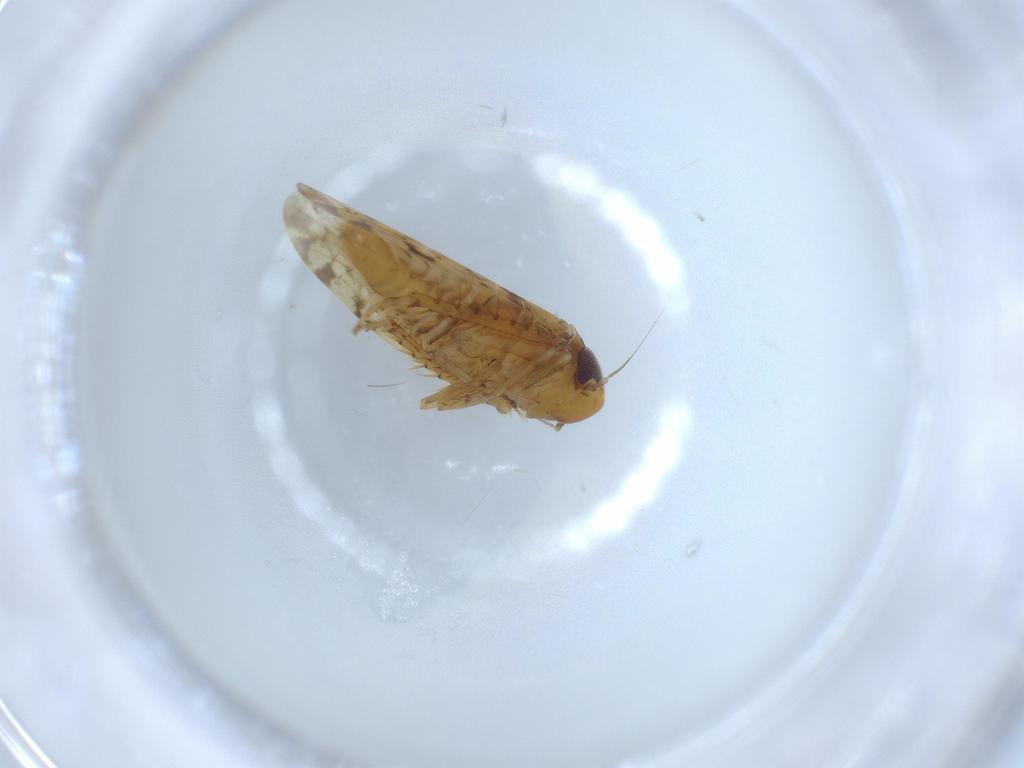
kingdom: Animalia
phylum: Arthropoda
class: Insecta
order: Hemiptera
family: Cicadellidae
